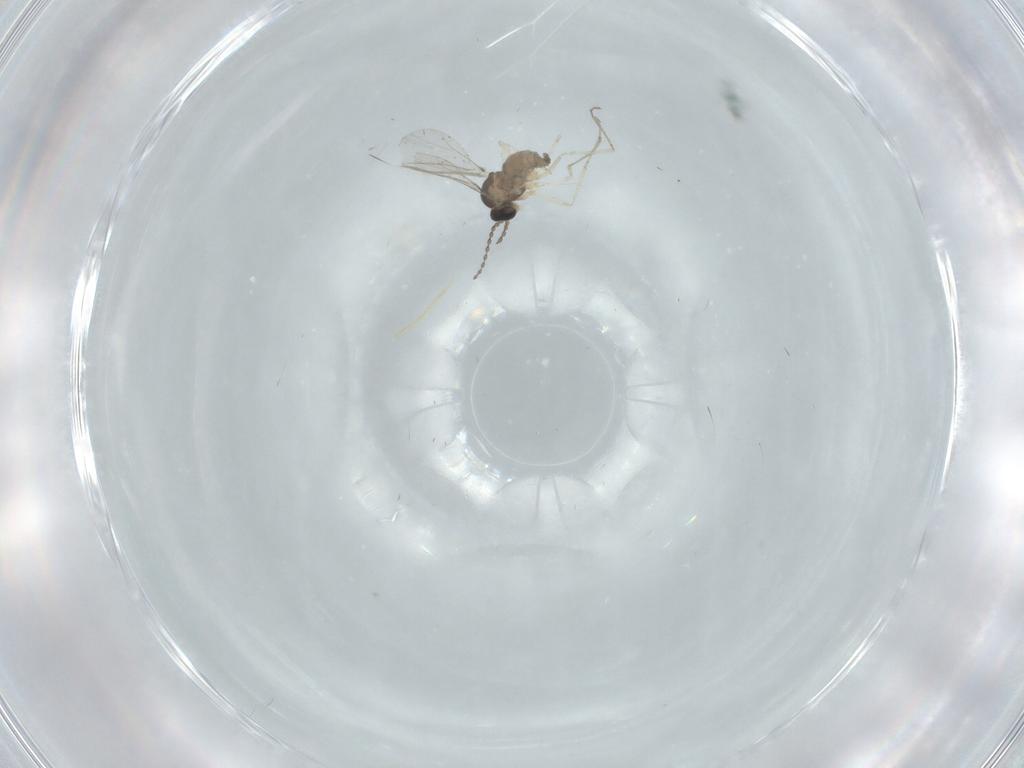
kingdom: Animalia
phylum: Arthropoda
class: Insecta
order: Diptera
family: Cecidomyiidae
